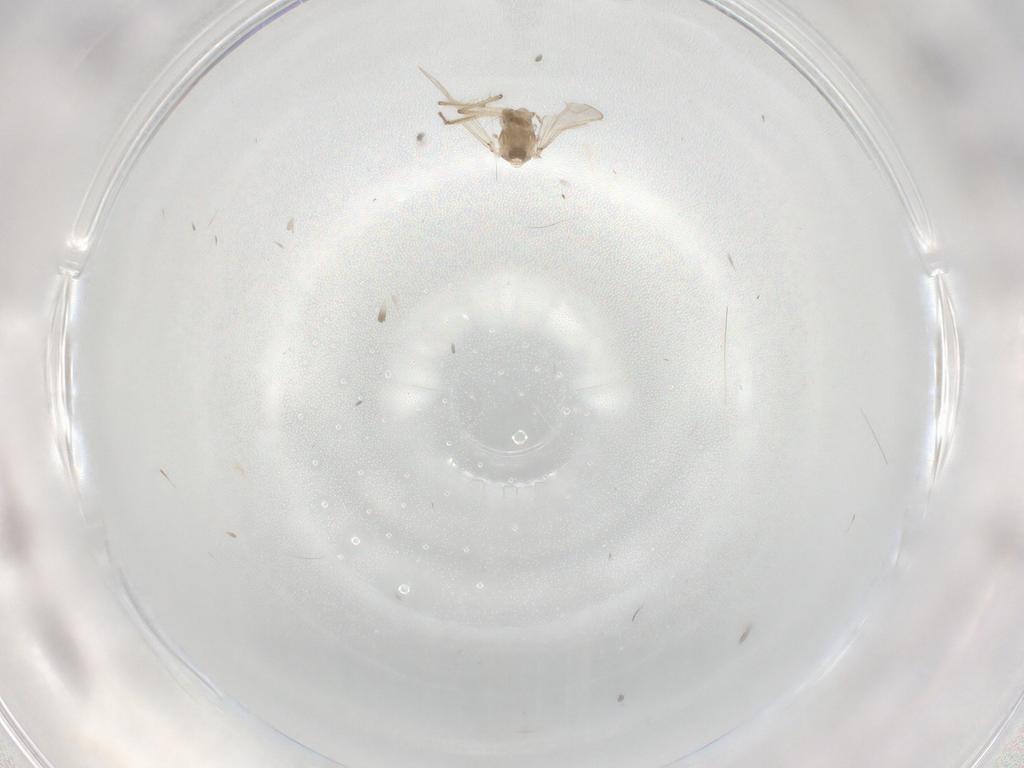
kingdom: Animalia
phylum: Arthropoda
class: Insecta
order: Diptera
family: Chironomidae
